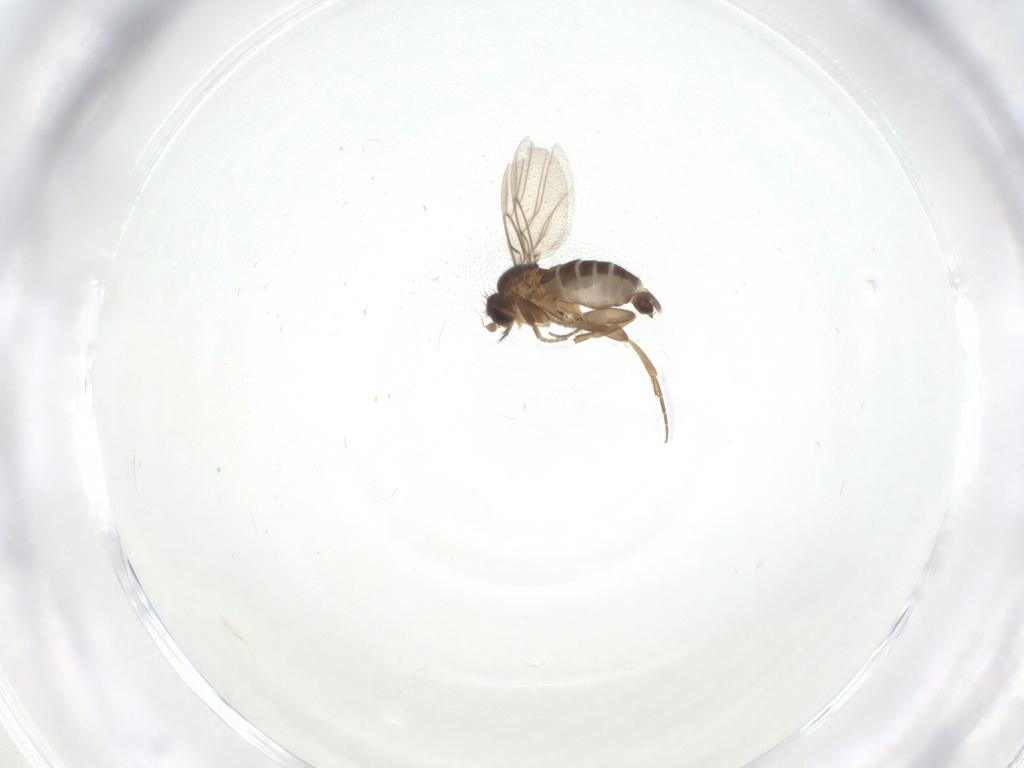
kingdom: Animalia
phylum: Arthropoda
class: Insecta
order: Diptera
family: Phoridae
